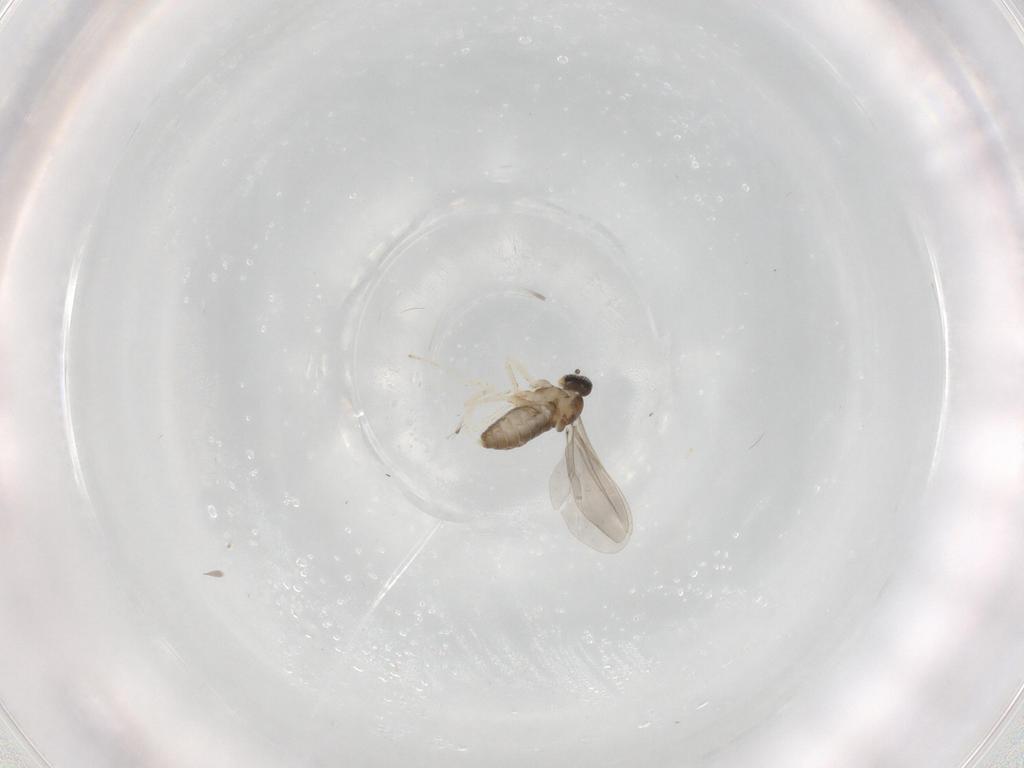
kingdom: Animalia
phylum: Arthropoda
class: Insecta
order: Diptera
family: Cecidomyiidae
